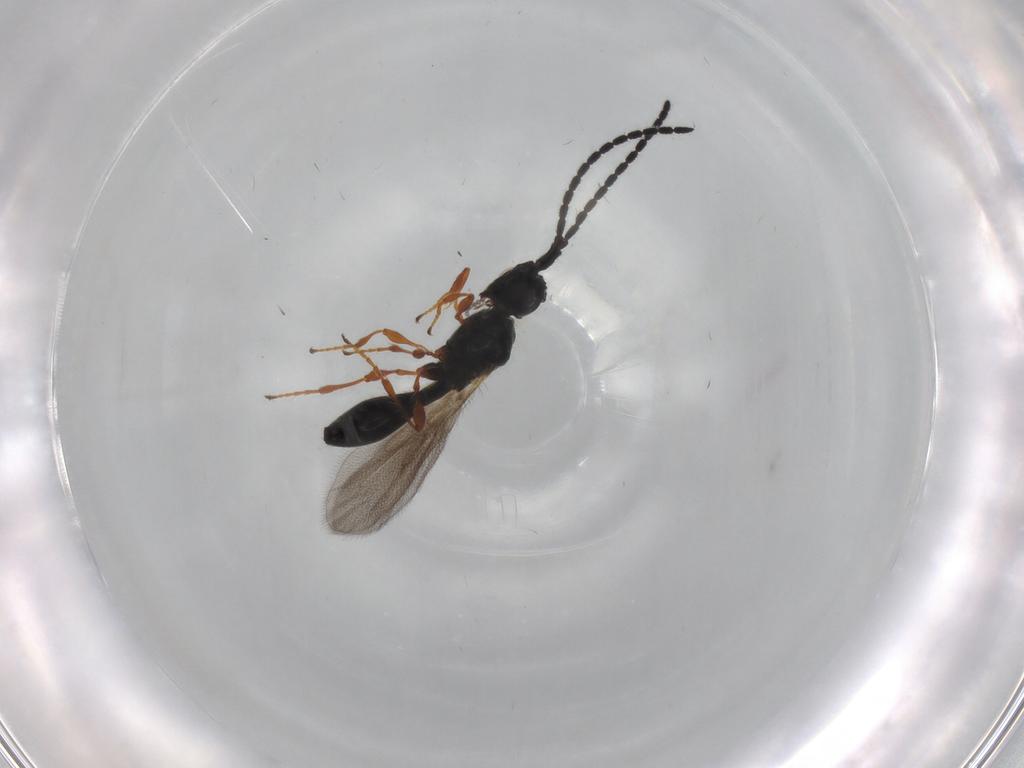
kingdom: Animalia
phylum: Arthropoda
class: Insecta
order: Hymenoptera
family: Diapriidae
